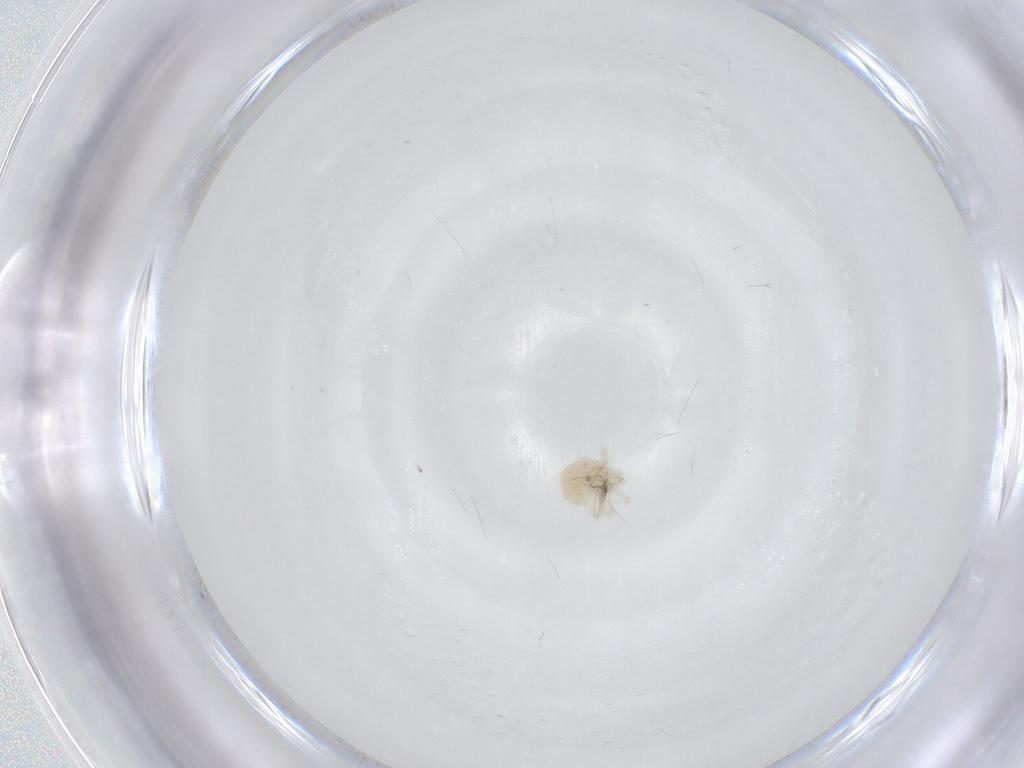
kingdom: Animalia
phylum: Arthropoda
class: Arachnida
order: Trombidiformes
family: Anystidae
